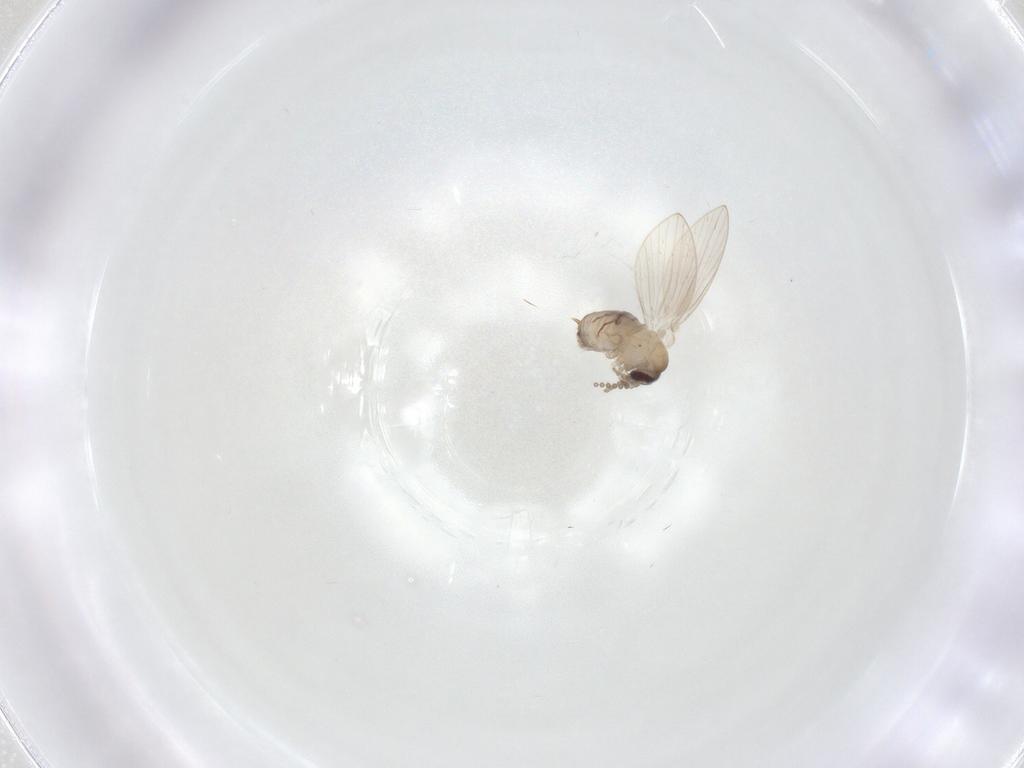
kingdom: Animalia
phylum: Arthropoda
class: Insecta
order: Diptera
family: Psychodidae
